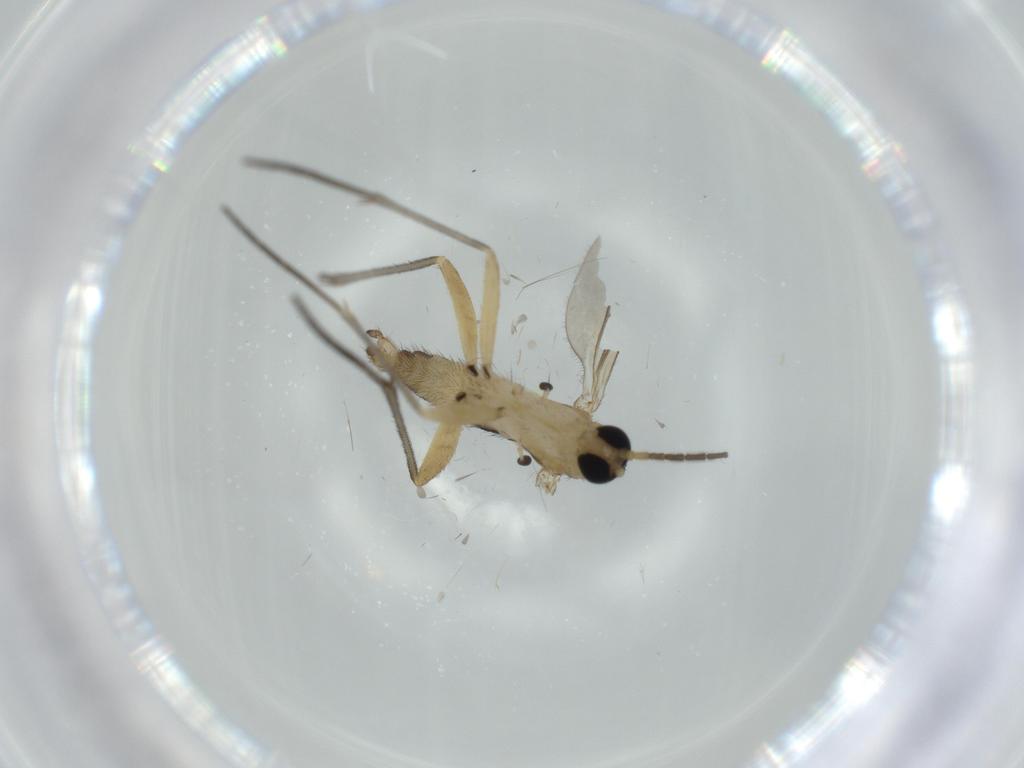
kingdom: Animalia
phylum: Arthropoda
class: Insecta
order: Diptera
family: Sciaridae
